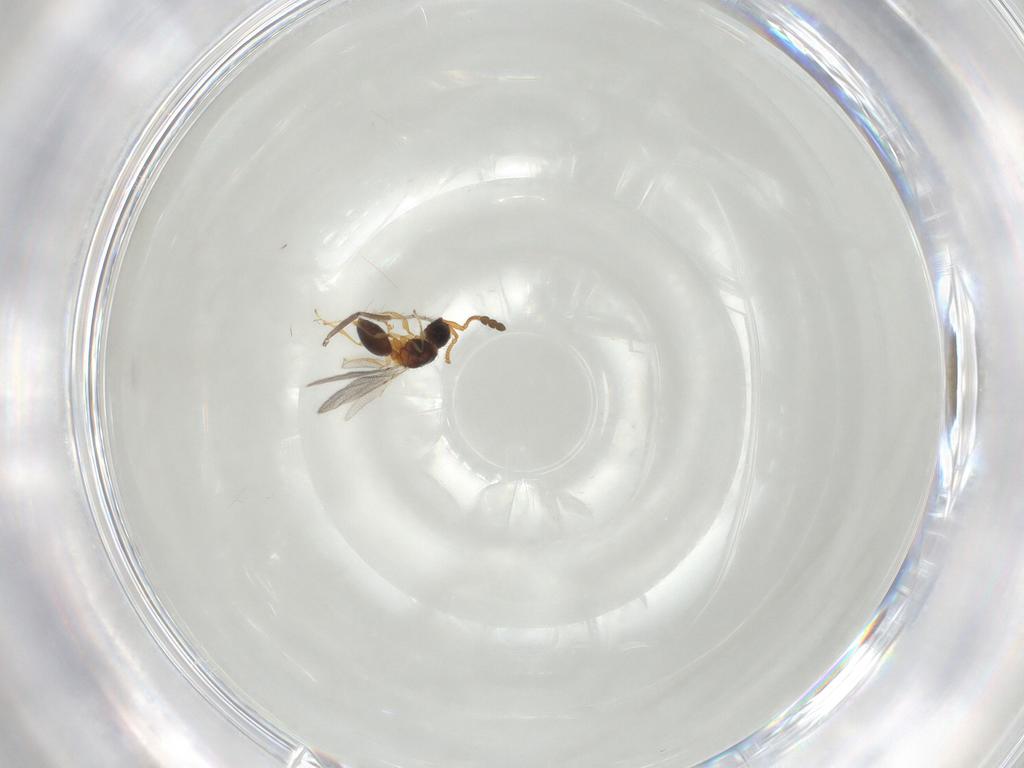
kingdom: Animalia
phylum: Arthropoda
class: Insecta
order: Hymenoptera
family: Diapriidae
